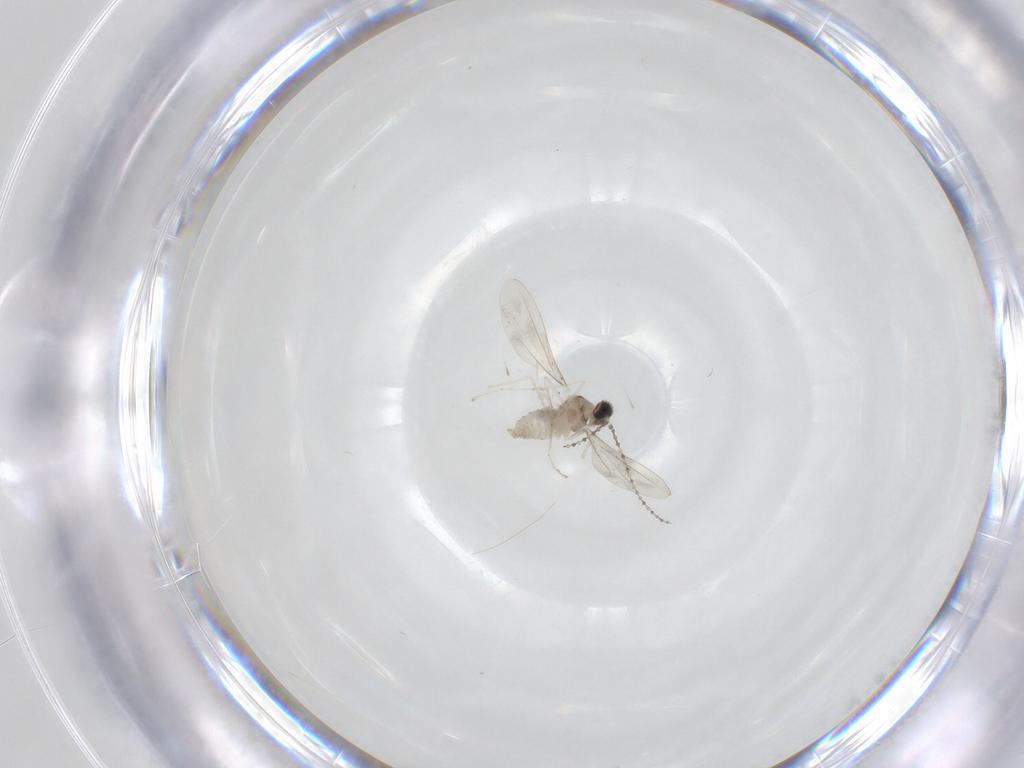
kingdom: Animalia
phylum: Arthropoda
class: Insecta
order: Diptera
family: Cecidomyiidae
